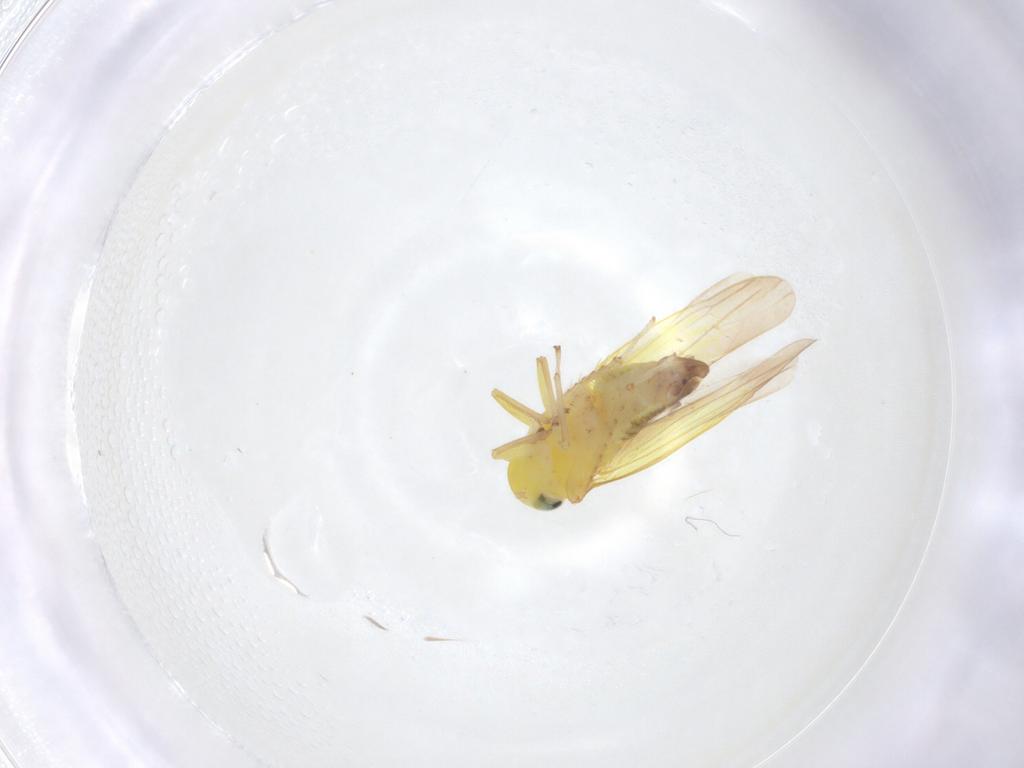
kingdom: Animalia
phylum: Arthropoda
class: Insecta
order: Hemiptera
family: Cicadellidae
